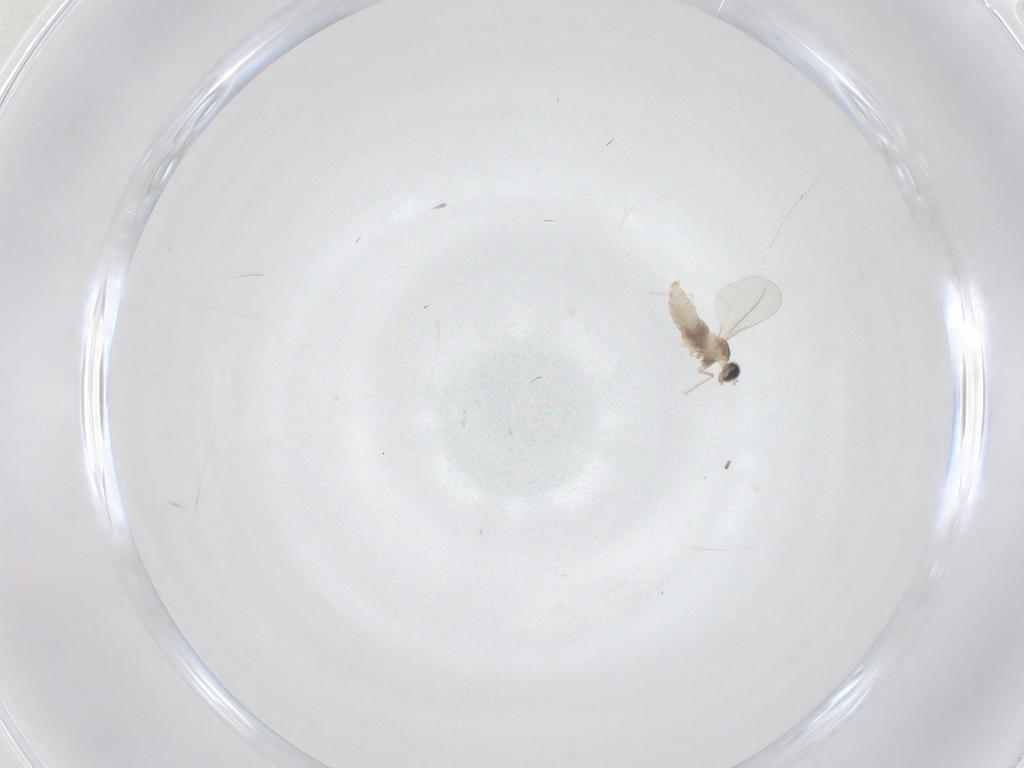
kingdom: Animalia
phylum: Arthropoda
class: Insecta
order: Diptera
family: Cecidomyiidae
